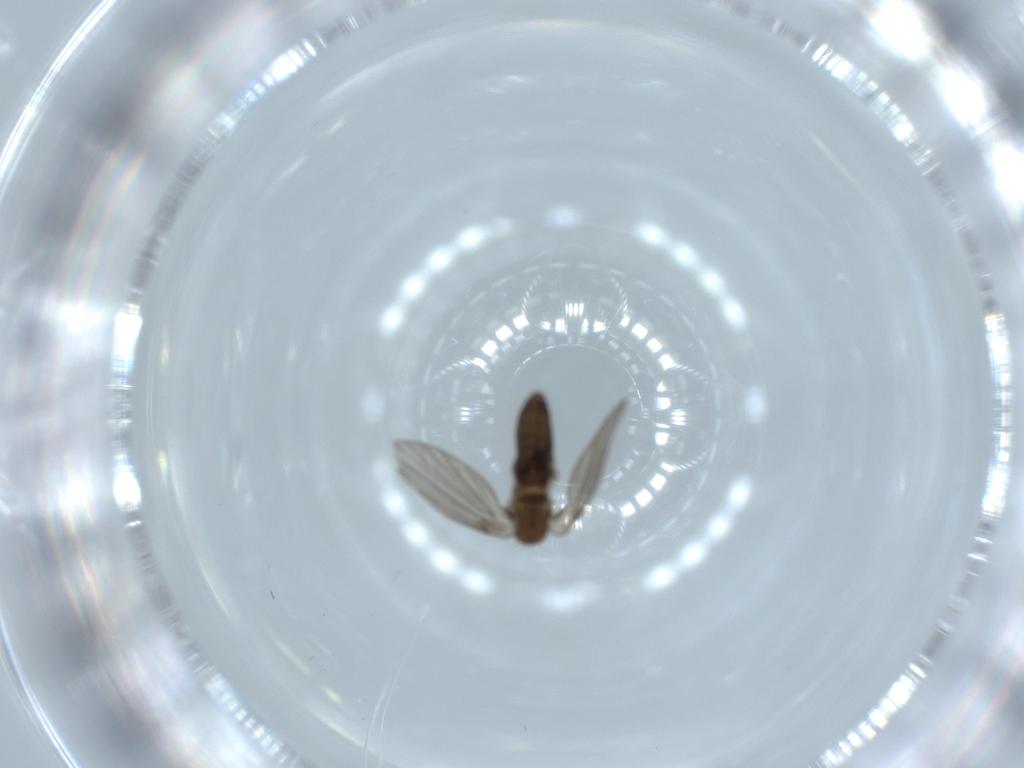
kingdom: Animalia
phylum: Arthropoda
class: Insecta
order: Diptera
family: Psychodidae
